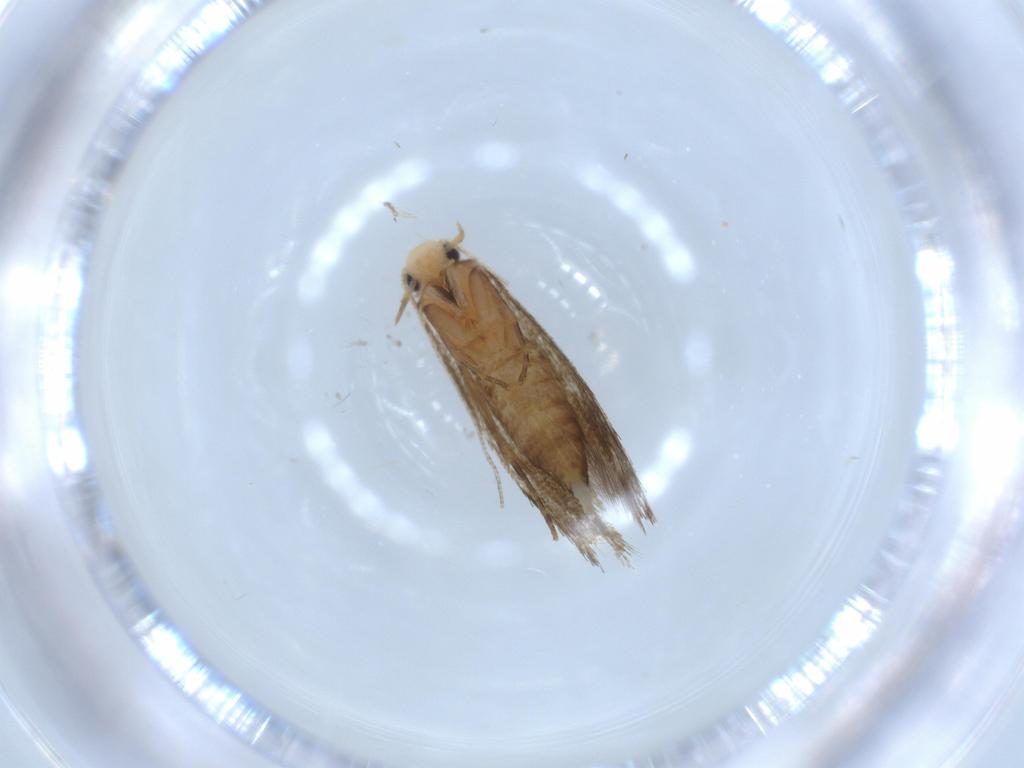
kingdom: Animalia
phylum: Arthropoda
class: Insecta
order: Lepidoptera
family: Tineidae
